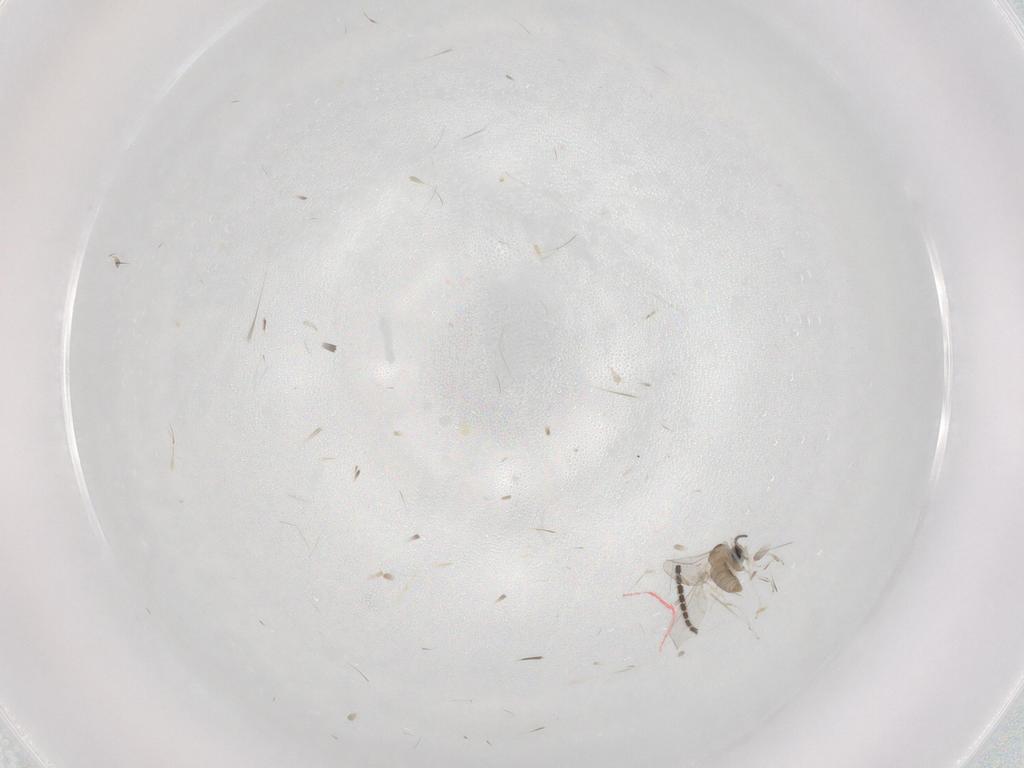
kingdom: Animalia
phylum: Arthropoda
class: Insecta
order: Diptera
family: Cecidomyiidae
